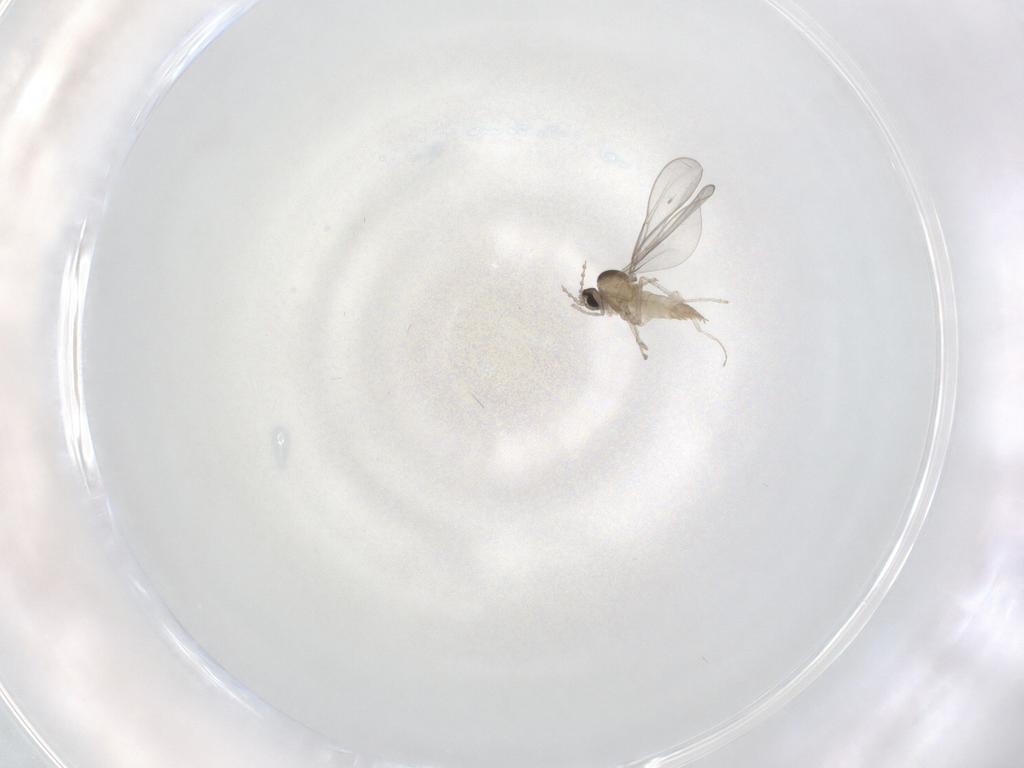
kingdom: Animalia
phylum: Arthropoda
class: Insecta
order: Diptera
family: Cecidomyiidae
